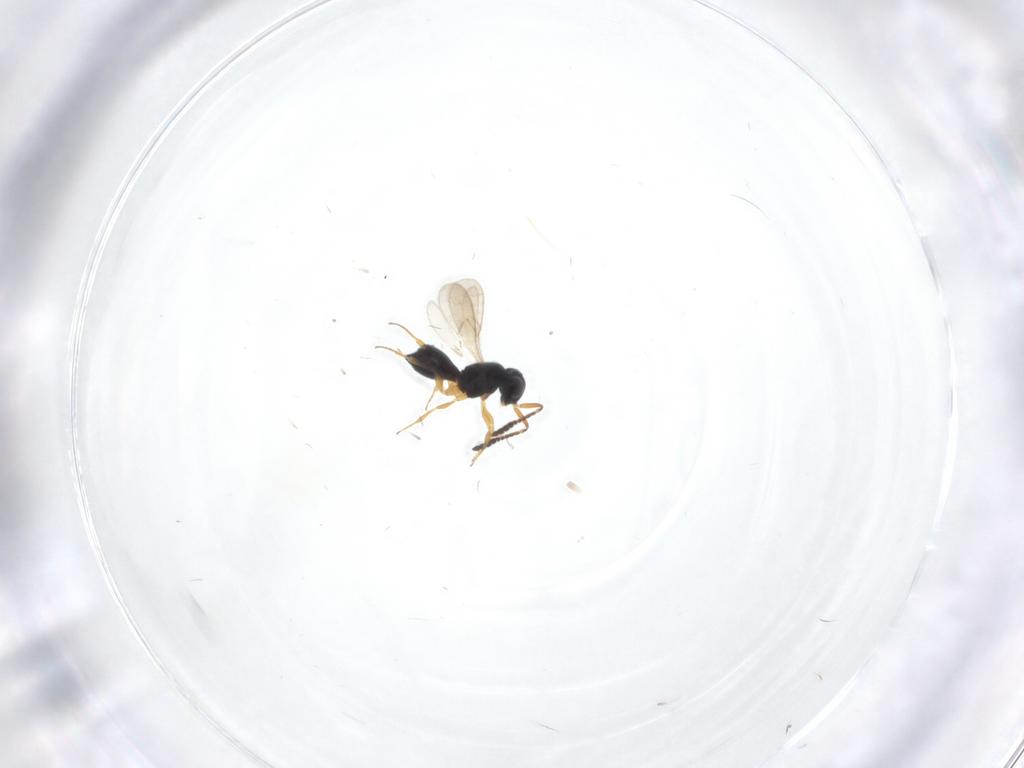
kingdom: Animalia
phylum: Arthropoda
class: Insecta
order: Hymenoptera
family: Scelionidae
